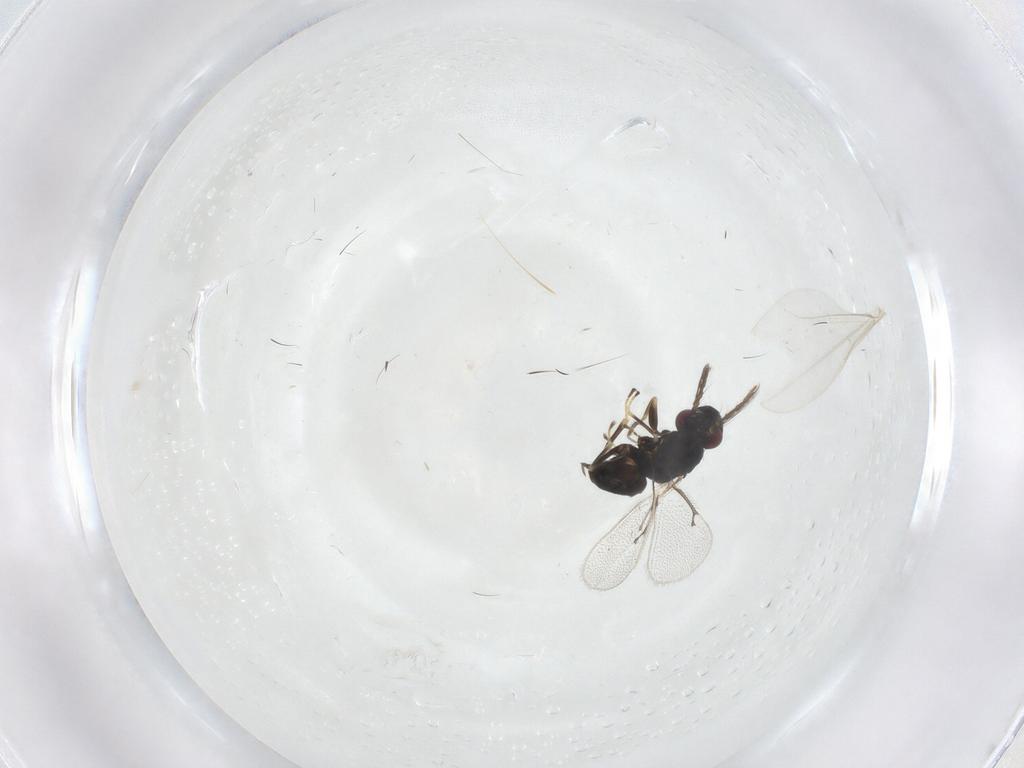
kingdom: Animalia
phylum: Arthropoda
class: Insecta
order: Hymenoptera
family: Eulophidae
